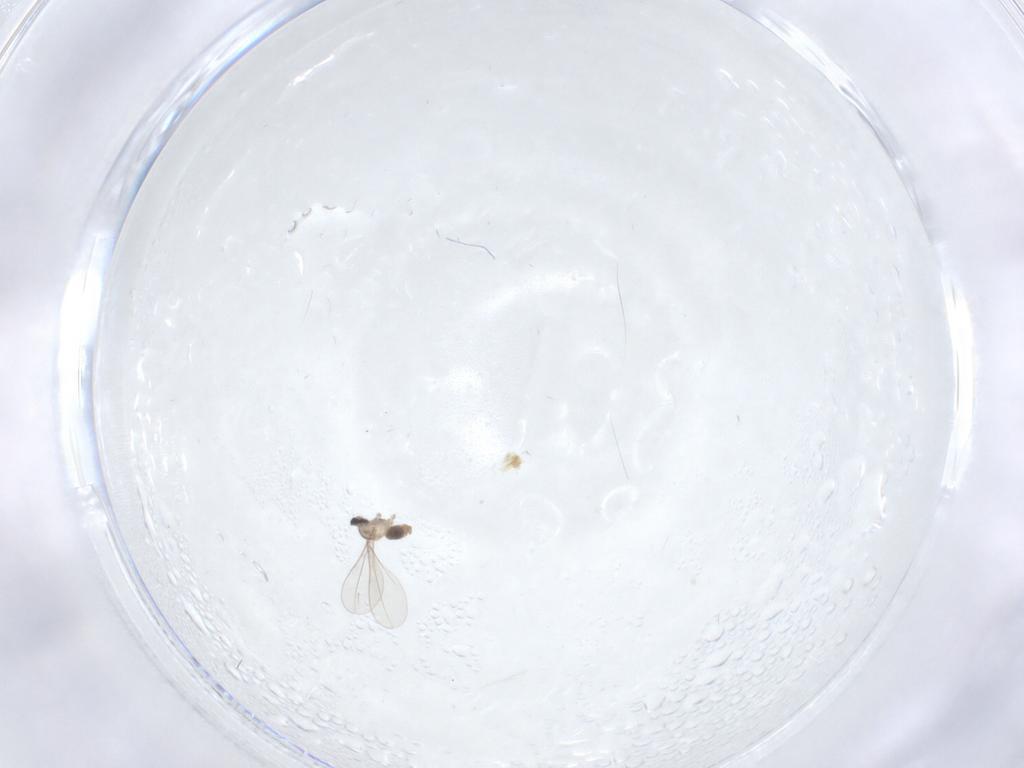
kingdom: Animalia
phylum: Arthropoda
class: Insecta
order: Diptera
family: Cecidomyiidae
